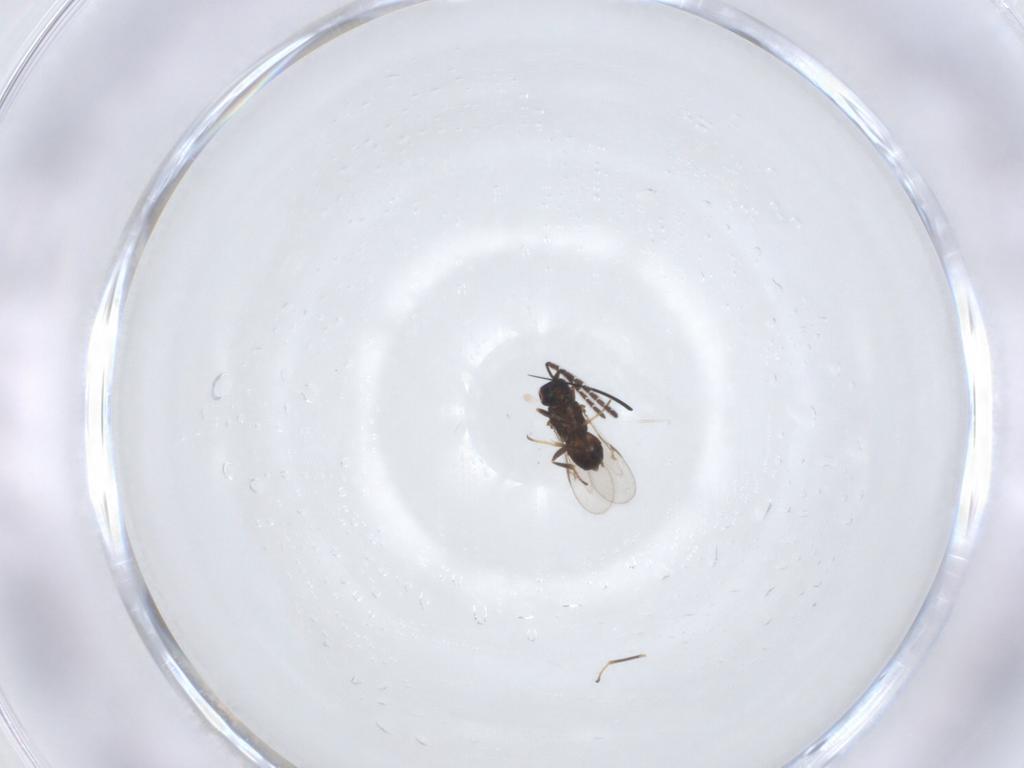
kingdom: Animalia
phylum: Arthropoda
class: Insecta
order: Hymenoptera
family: Encyrtidae
